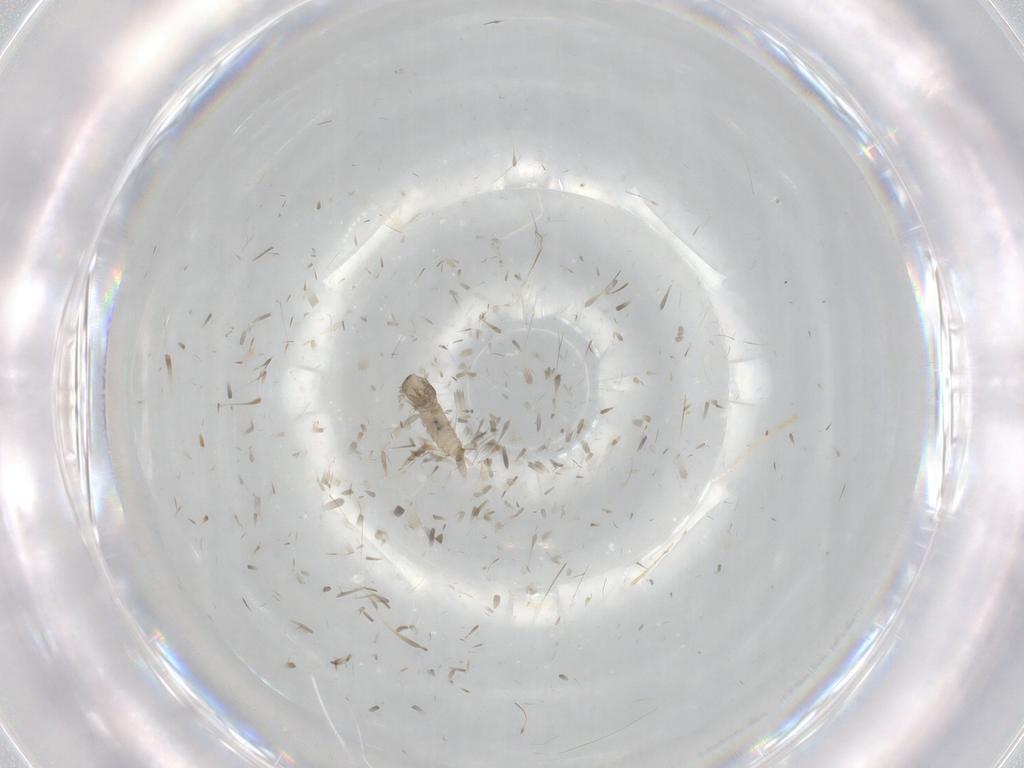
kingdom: Animalia
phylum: Arthropoda
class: Insecta
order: Diptera
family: Cecidomyiidae
